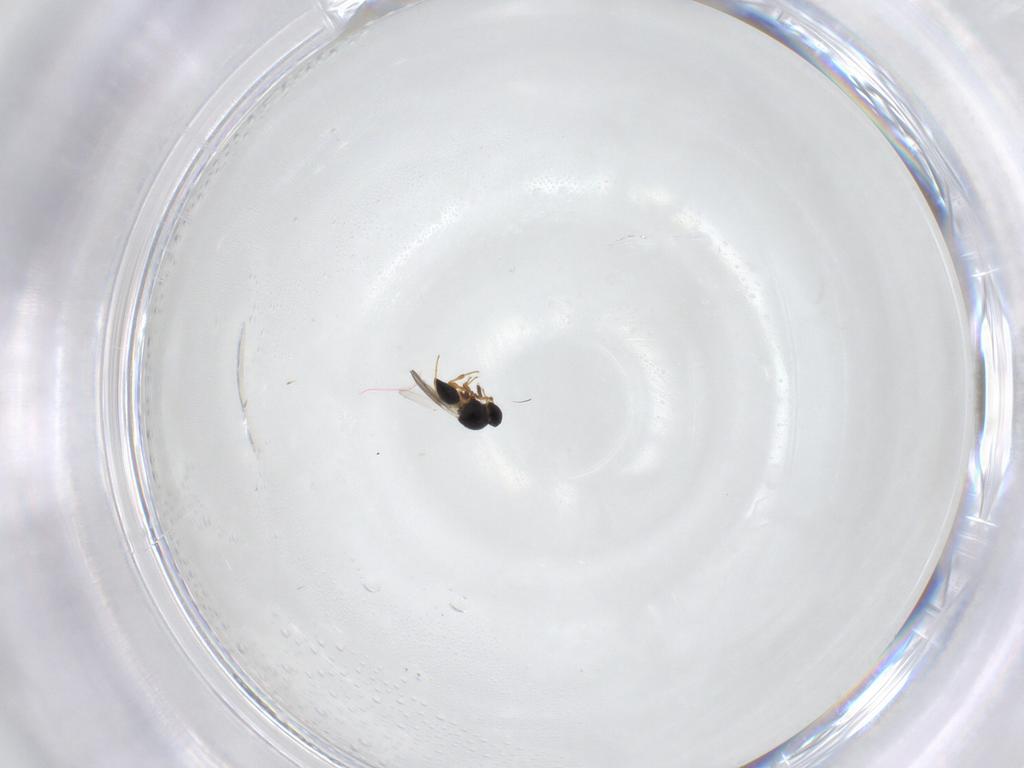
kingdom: Animalia
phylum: Arthropoda
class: Insecta
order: Hymenoptera
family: Platygastridae
